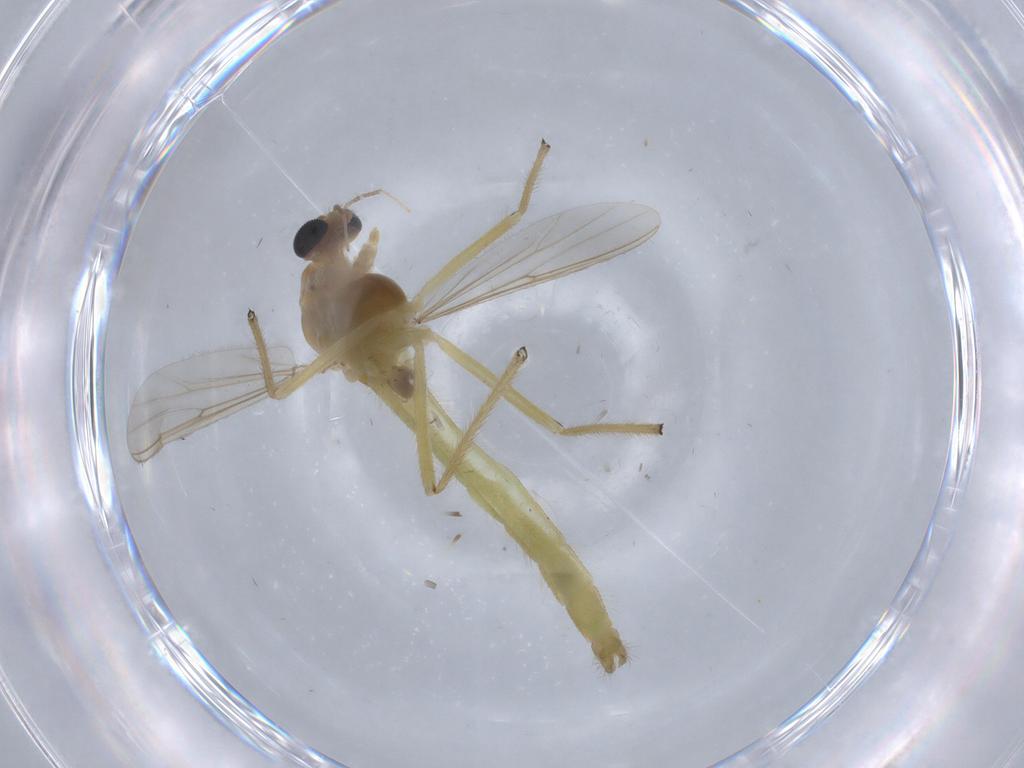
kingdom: Animalia
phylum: Arthropoda
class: Insecta
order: Diptera
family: Chironomidae
